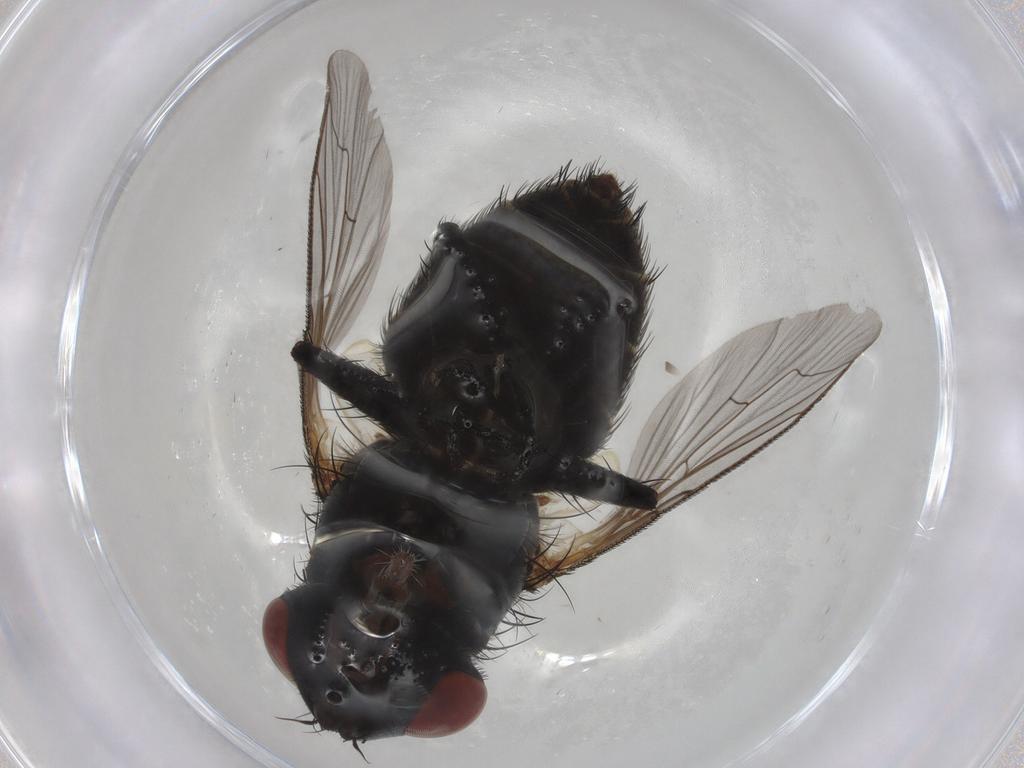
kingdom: Animalia
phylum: Arthropoda
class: Insecta
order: Diptera
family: Sarcophagidae
